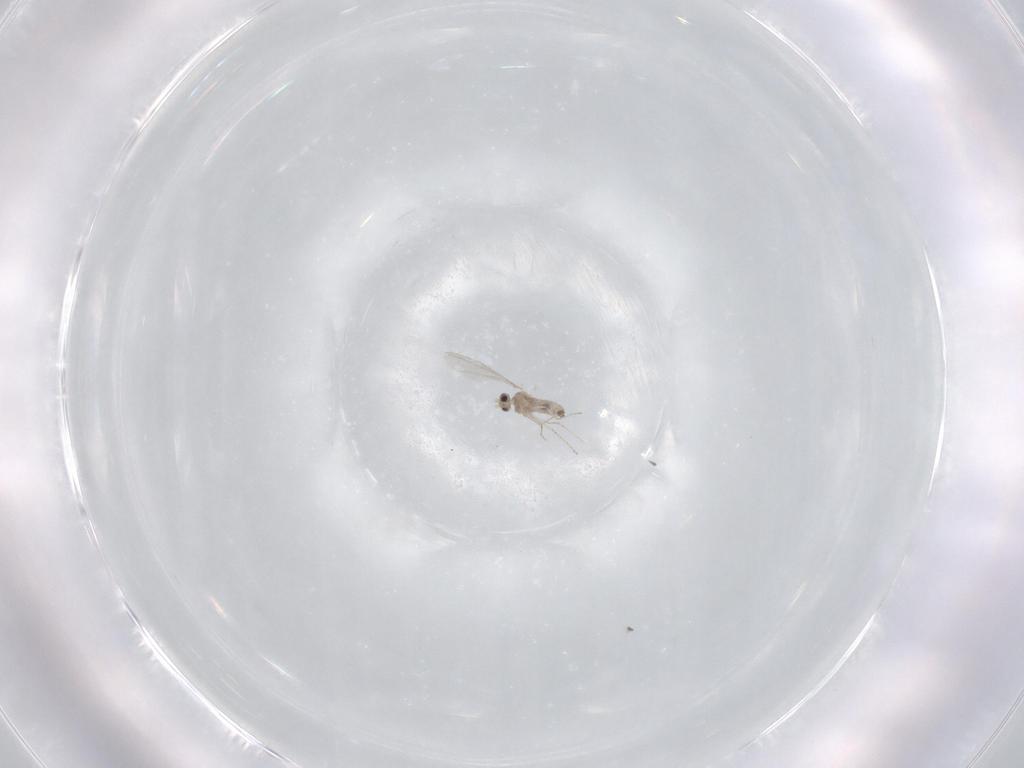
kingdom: Animalia
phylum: Arthropoda
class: Insecta
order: Diptera
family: Cecidomyiidae
